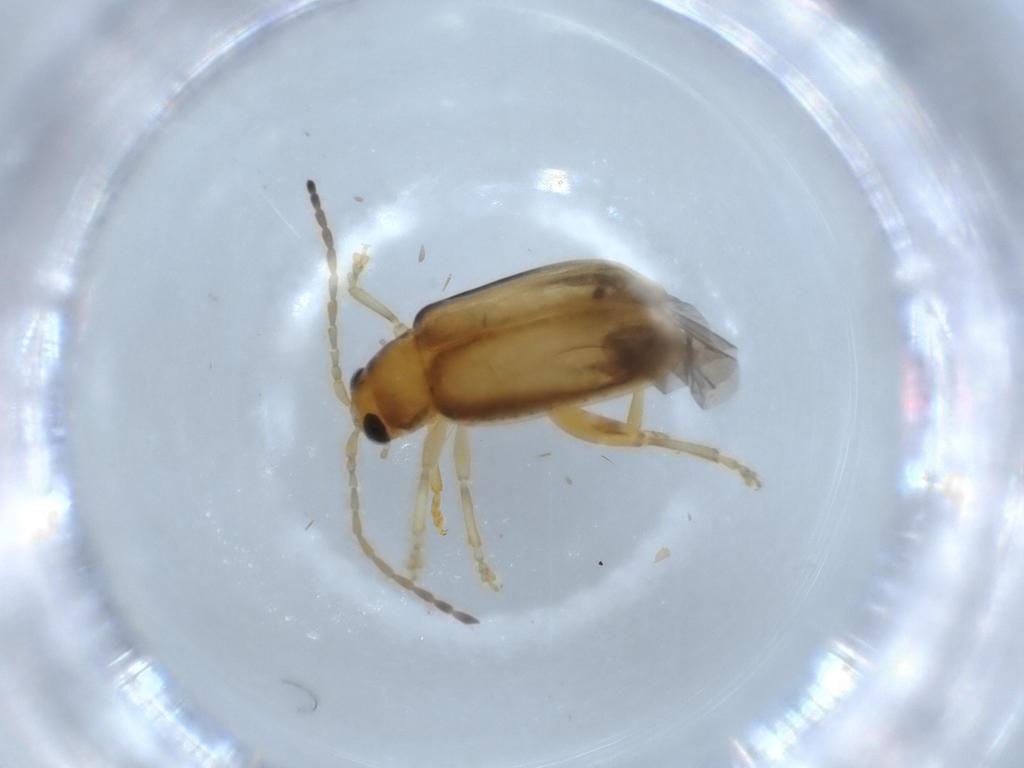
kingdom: Animalia
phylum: Arthropoda
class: Insecta
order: Coleoptera
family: Chrysomelidae
